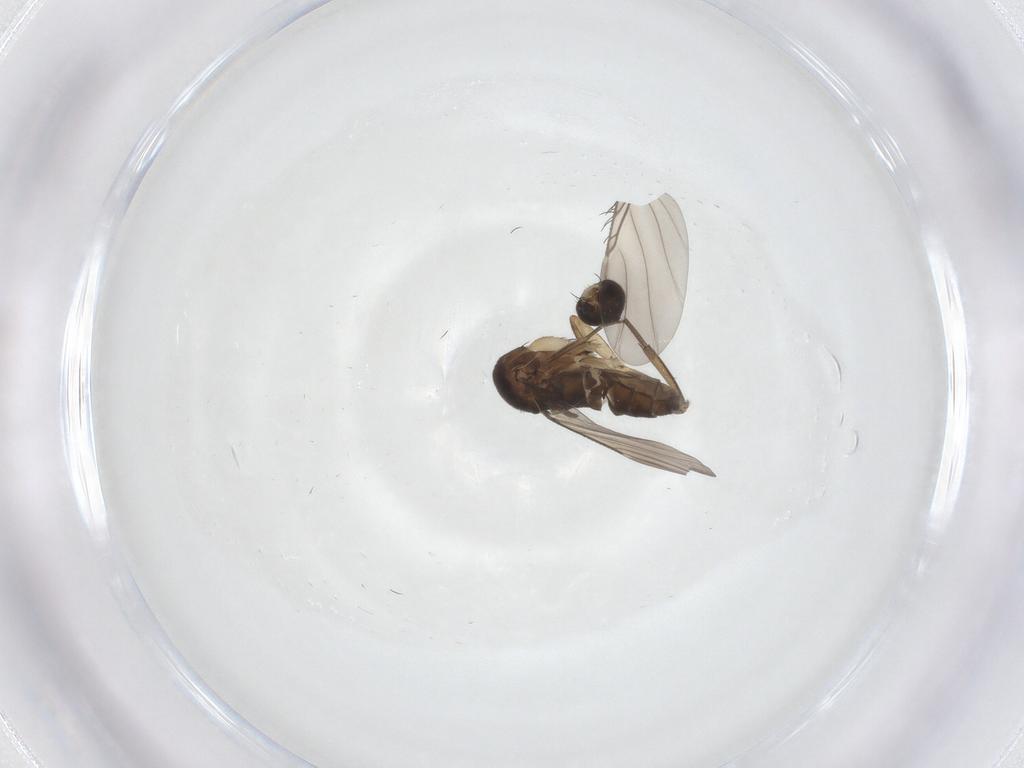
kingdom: Animalia
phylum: Arthropoda
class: Insecta
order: Diptera
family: Phoridae
